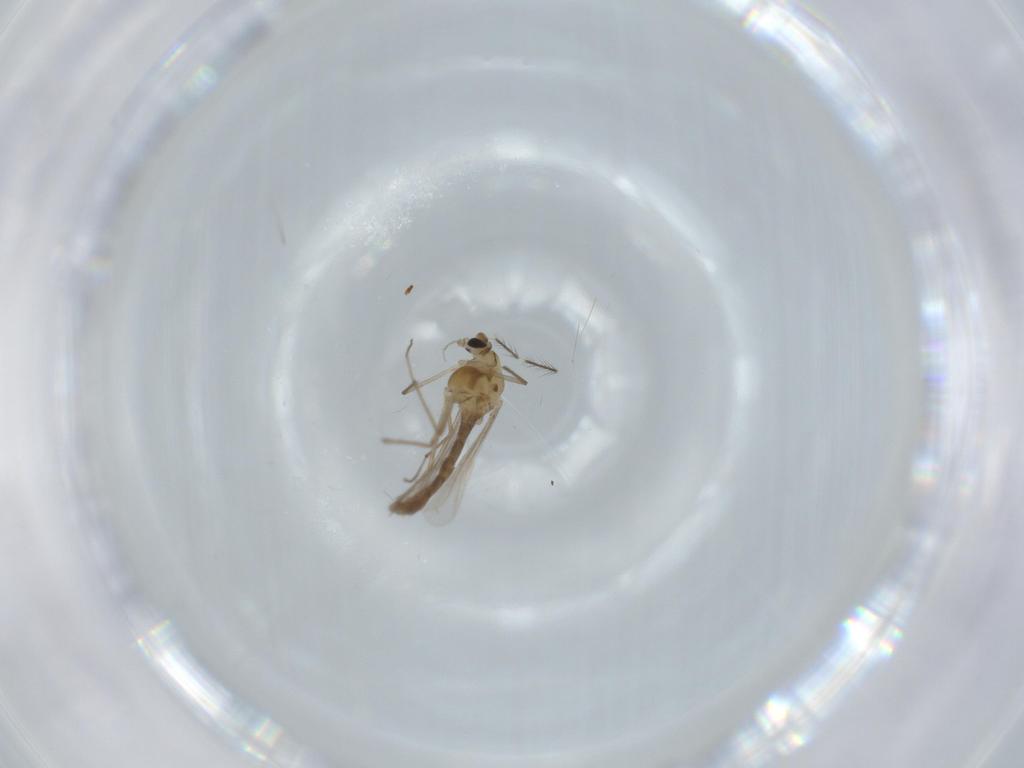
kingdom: Animalia
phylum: Arthropoda
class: Insecta
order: Diptera
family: Chironomidae
